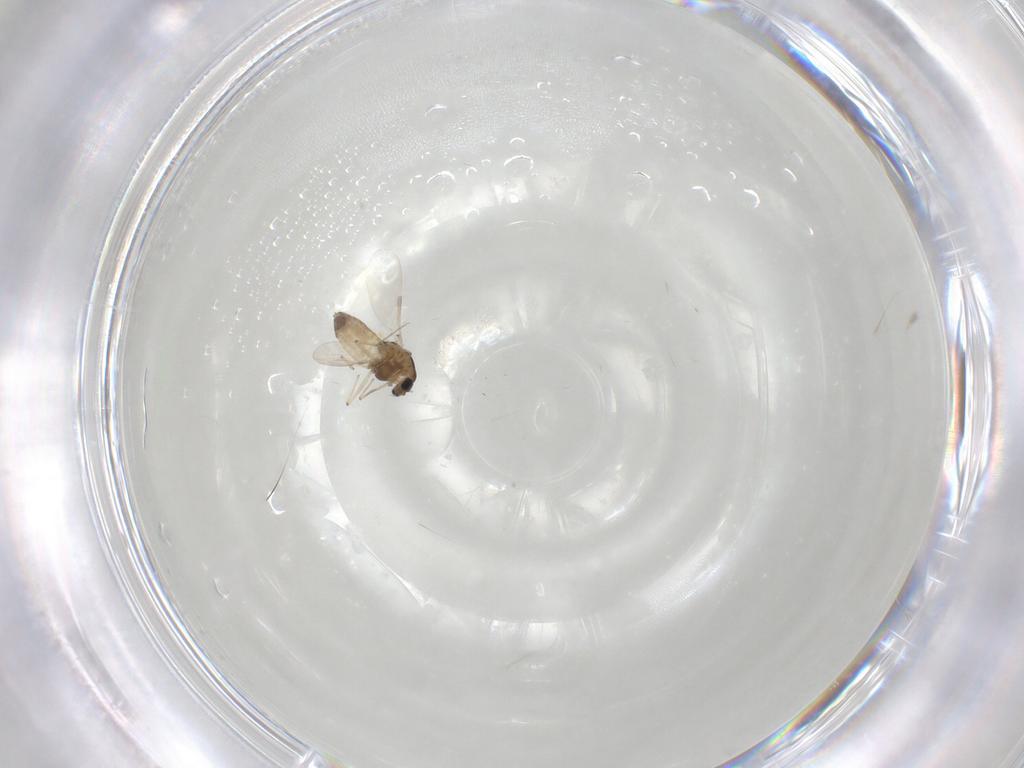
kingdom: Animalia
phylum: Arthropoda
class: Insecta
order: Diptera
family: Chironomidae
